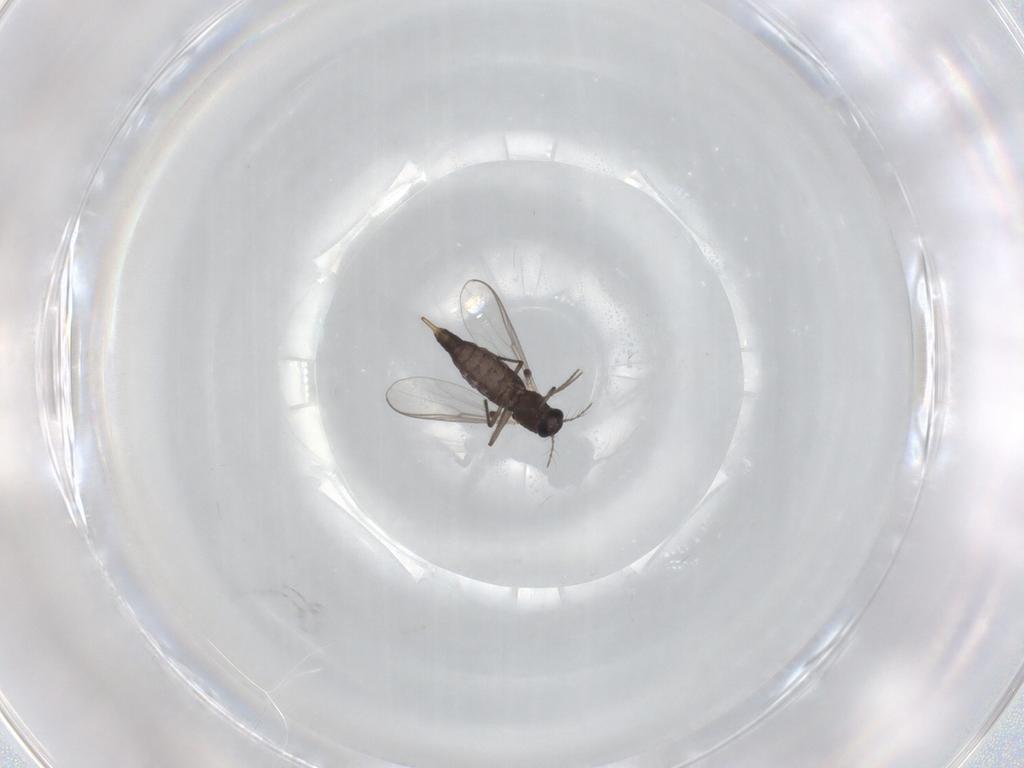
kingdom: Animalia
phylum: Arthropoda
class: Insecta
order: Diptera
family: Chironomidae
